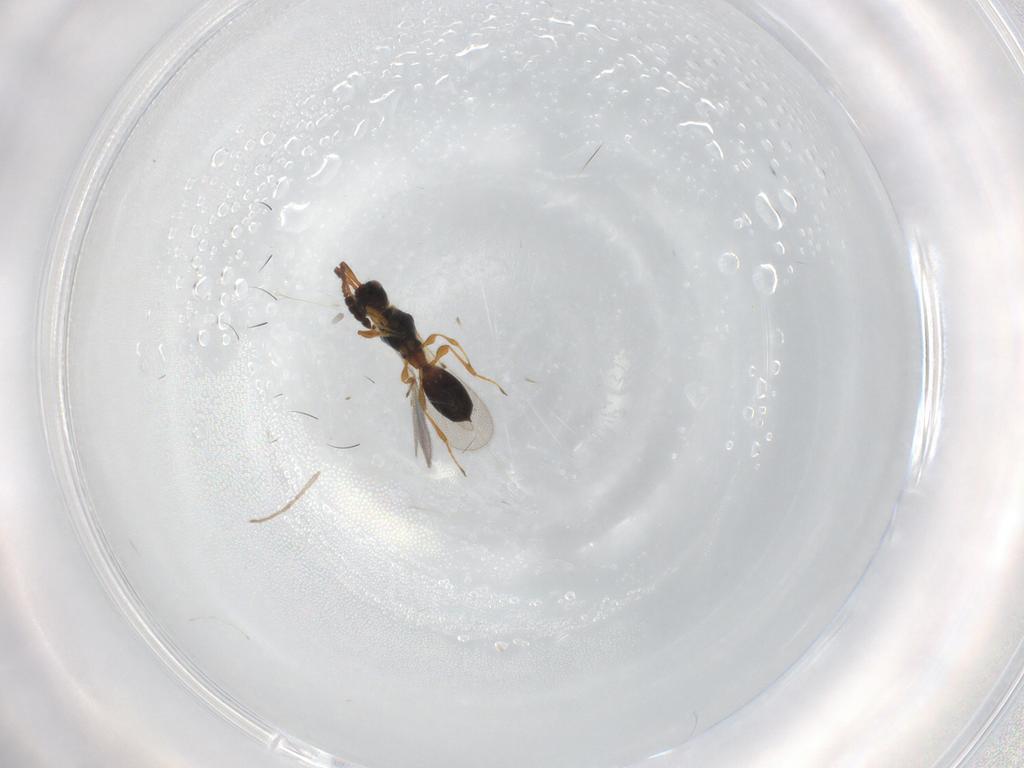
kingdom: Animalia
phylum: Arthropoda
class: Insecta
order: Hymenoptera
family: Diapriidae
